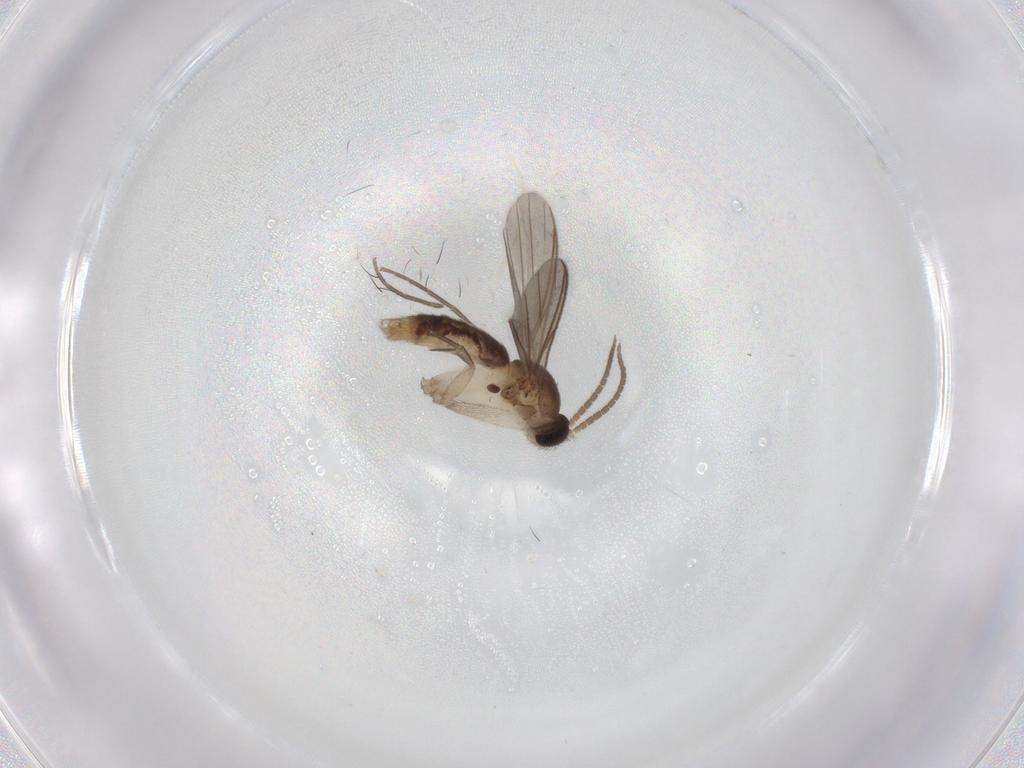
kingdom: Animalia
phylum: Arthropoda
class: Insecta
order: Diptera
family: Mycetophilidae
